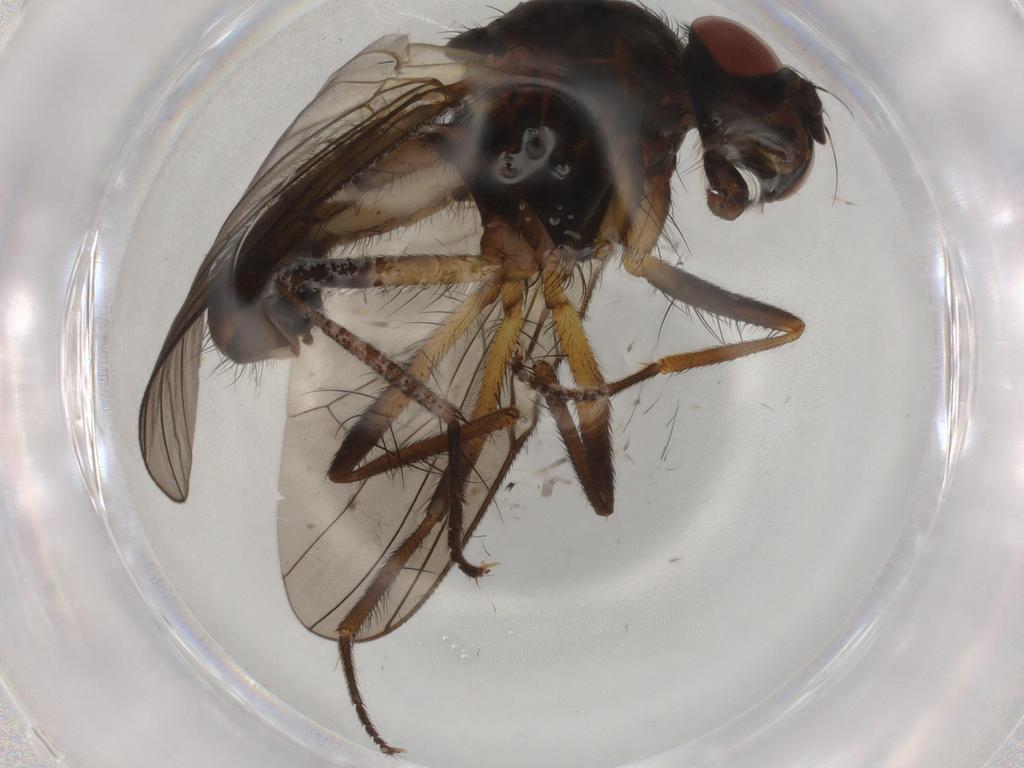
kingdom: Animalia
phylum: Arthropoda
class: Insecta
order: Diptera
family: Anthomyiidae
